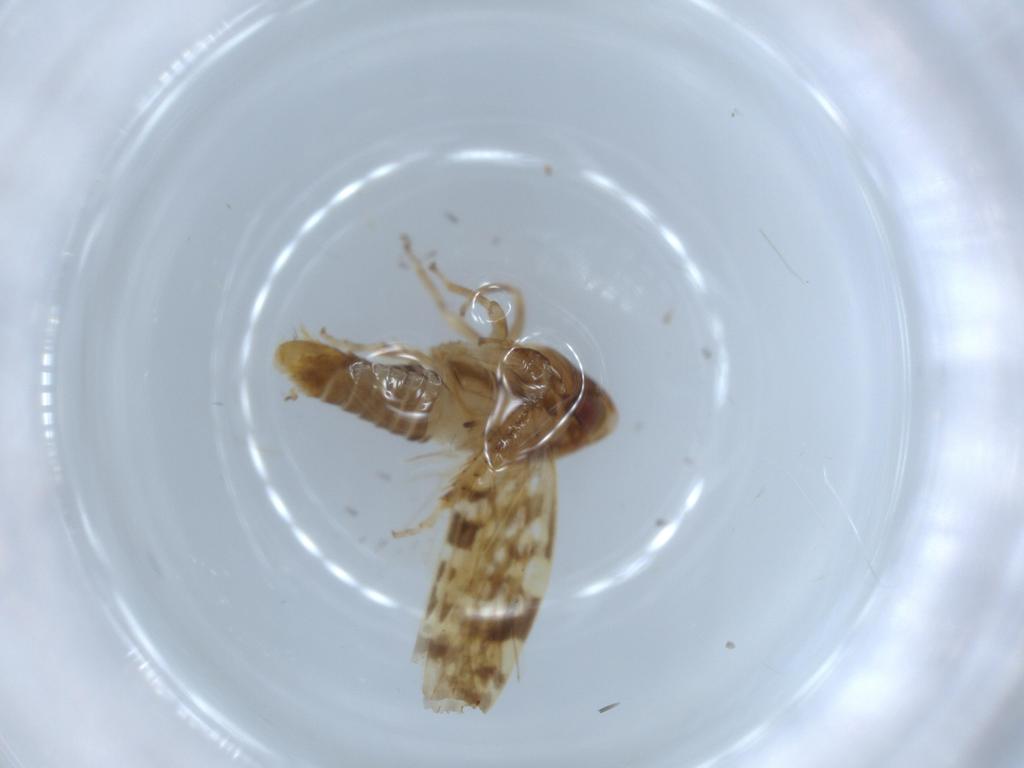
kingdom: Animalia
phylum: Arthropoda
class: Insecta
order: Hemiptera
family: Cicadellidae
